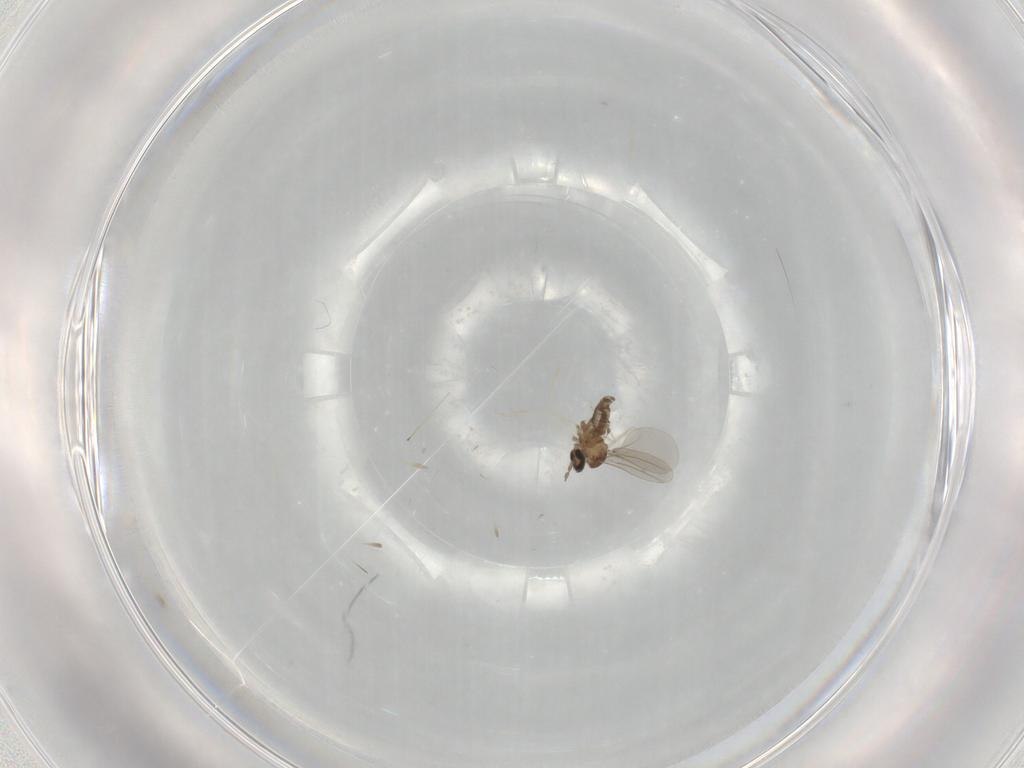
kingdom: Animalia
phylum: Arthropoda
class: Insecta
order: Diptera
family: Cecidomyiidae
